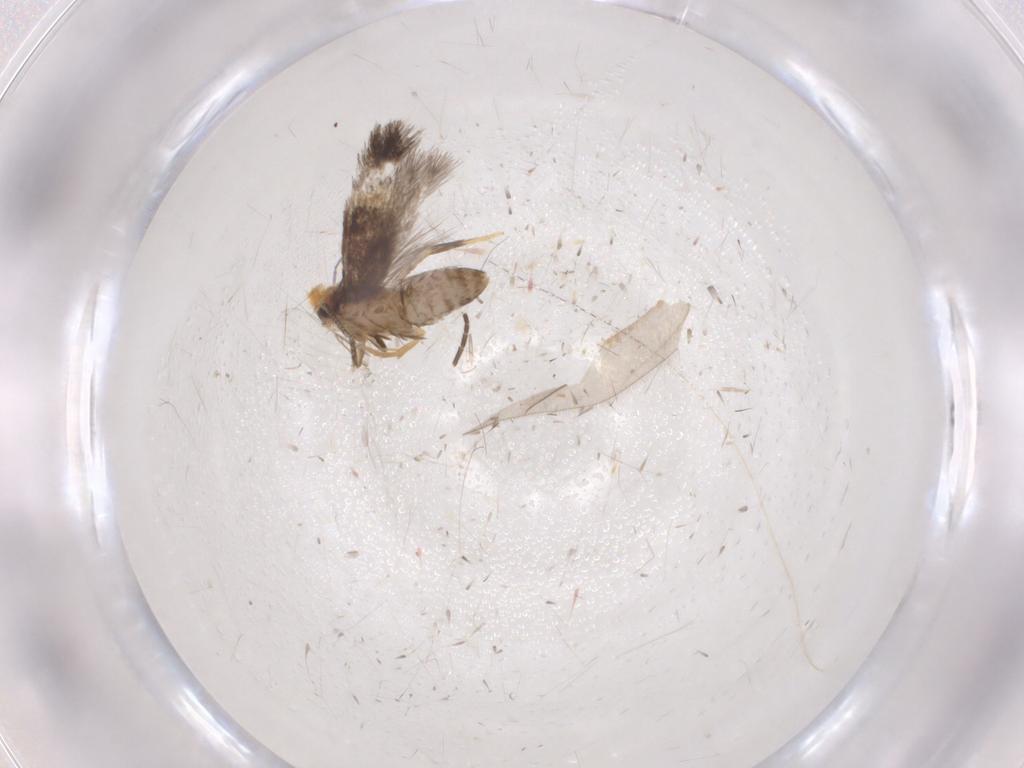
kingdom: Animalia
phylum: Arthropoda
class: Insecta
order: Lepidoptera
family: Nepticulidae
